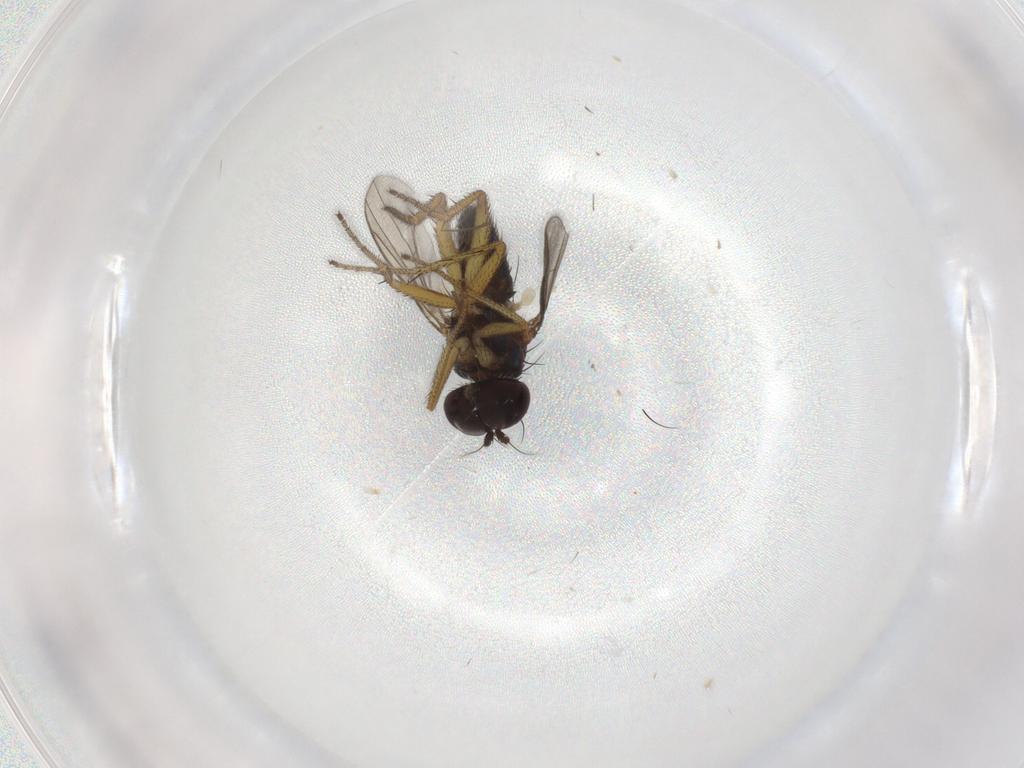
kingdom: Animalia
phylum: Arthropoda
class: Insecta
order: Diptera
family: Dolichopodidae
